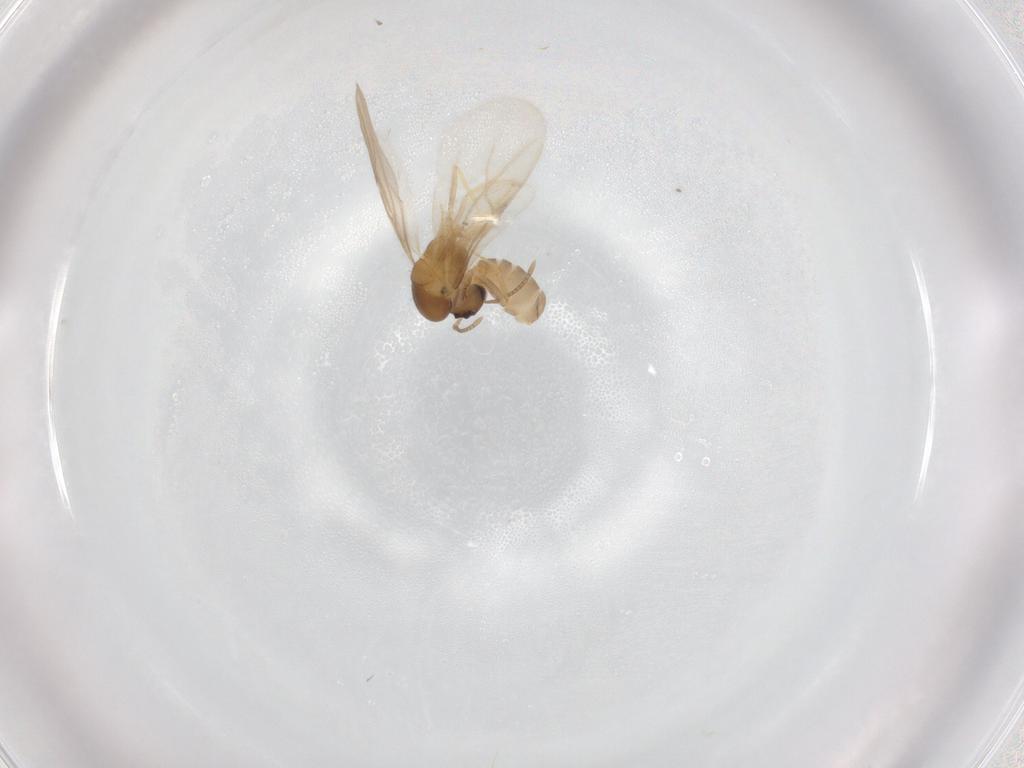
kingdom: Animalia
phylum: Arthropoda
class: Insecta
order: Hymenoptera
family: Formicidae
